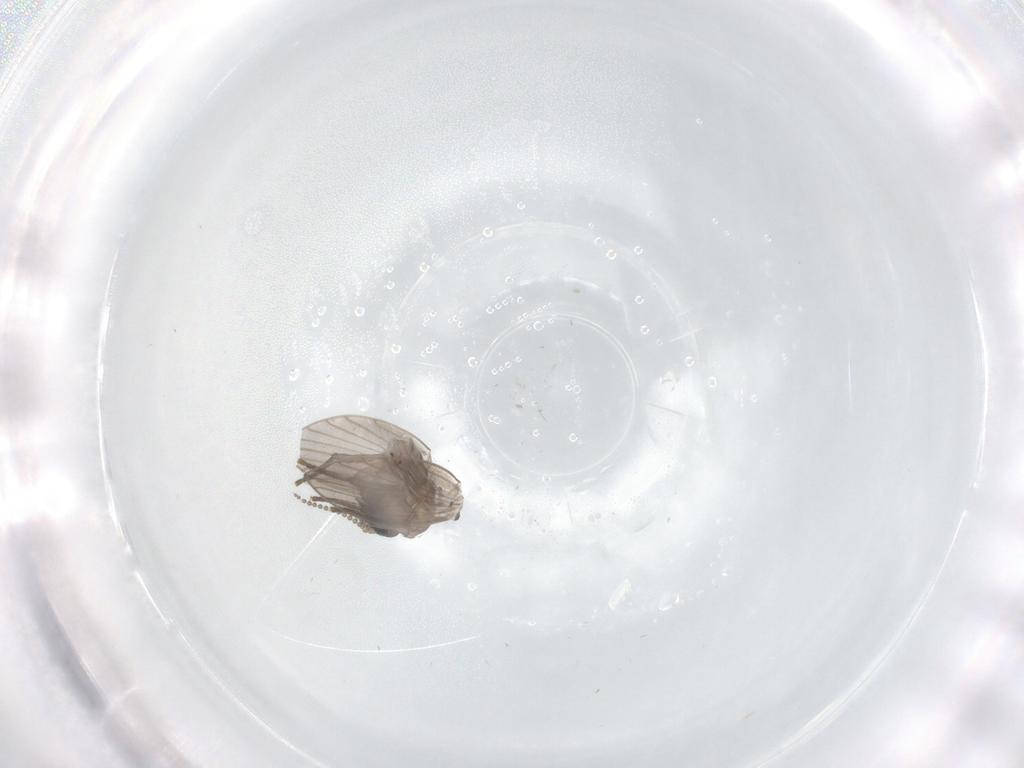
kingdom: Animalia
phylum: Arthropoda
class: Insecta
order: Diptera
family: Psychodidae
